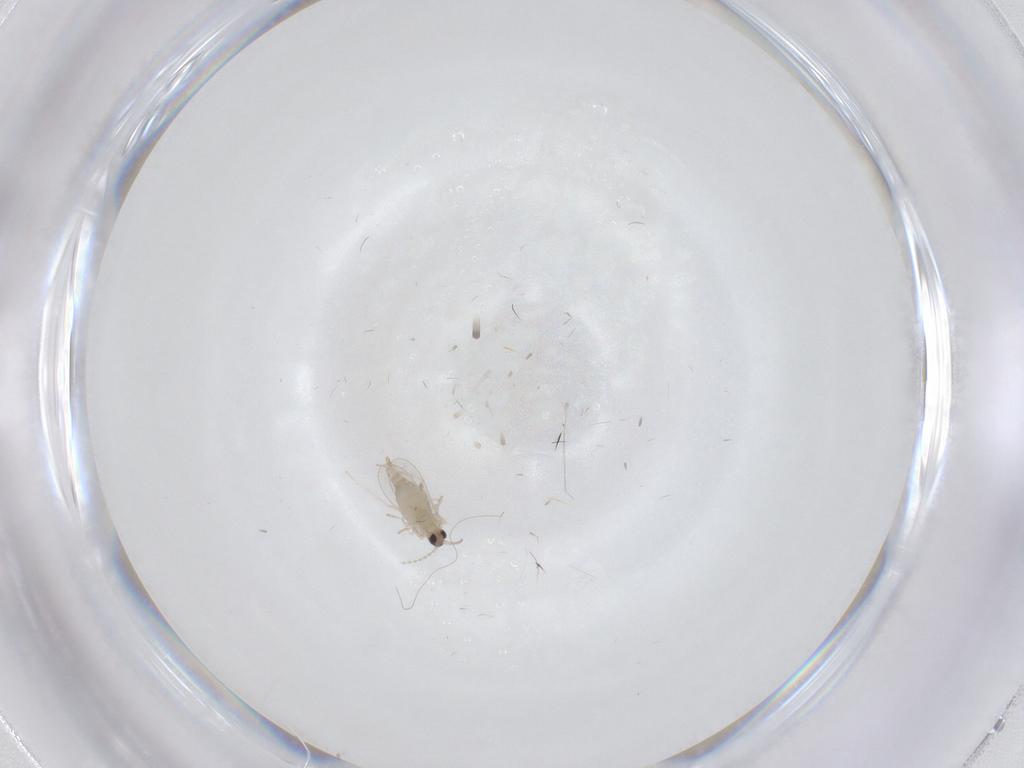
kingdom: Animalia
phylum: Arthropoda
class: Insecta
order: Diptera
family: Cecidomyiidae
